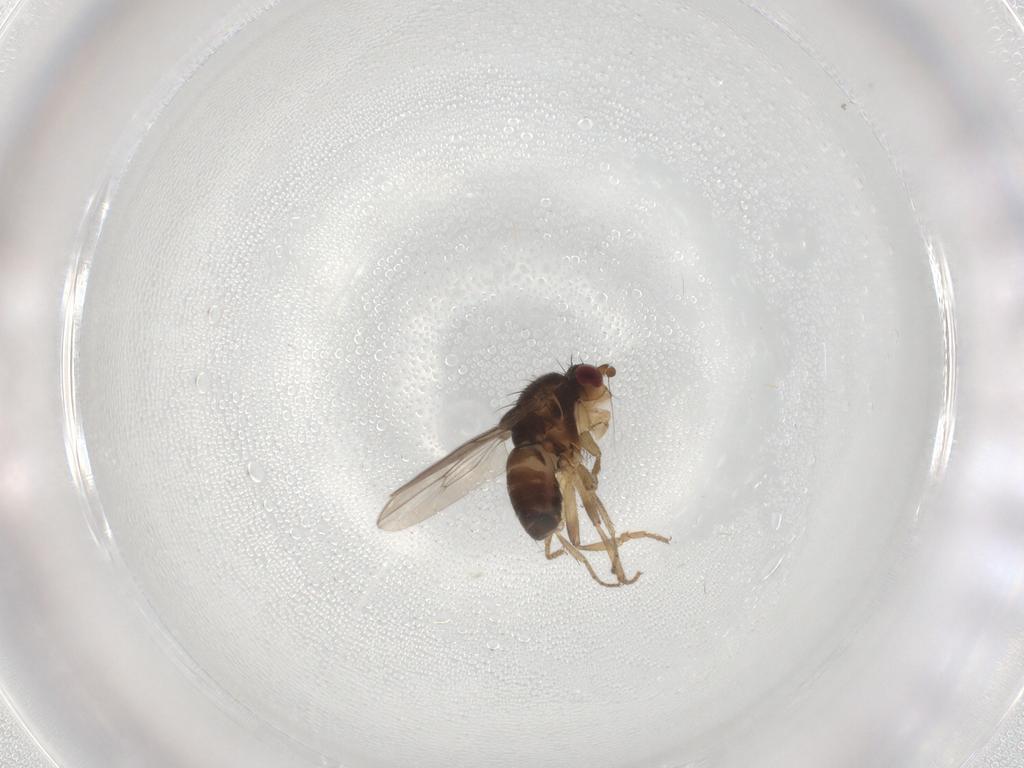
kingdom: Animalia
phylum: Arthropoda
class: Insecta
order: Diptera
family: Sphaeroceridae
